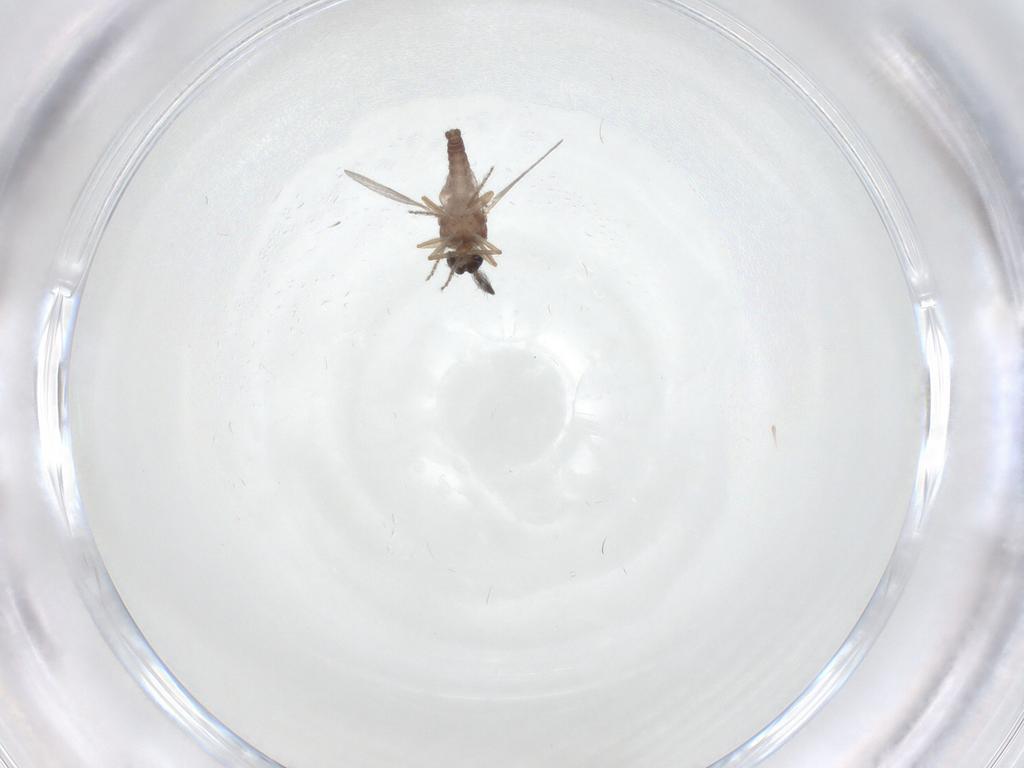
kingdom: Animalia
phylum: Arthropoda
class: Insecta
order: Diptera
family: Ceratopogonidae
